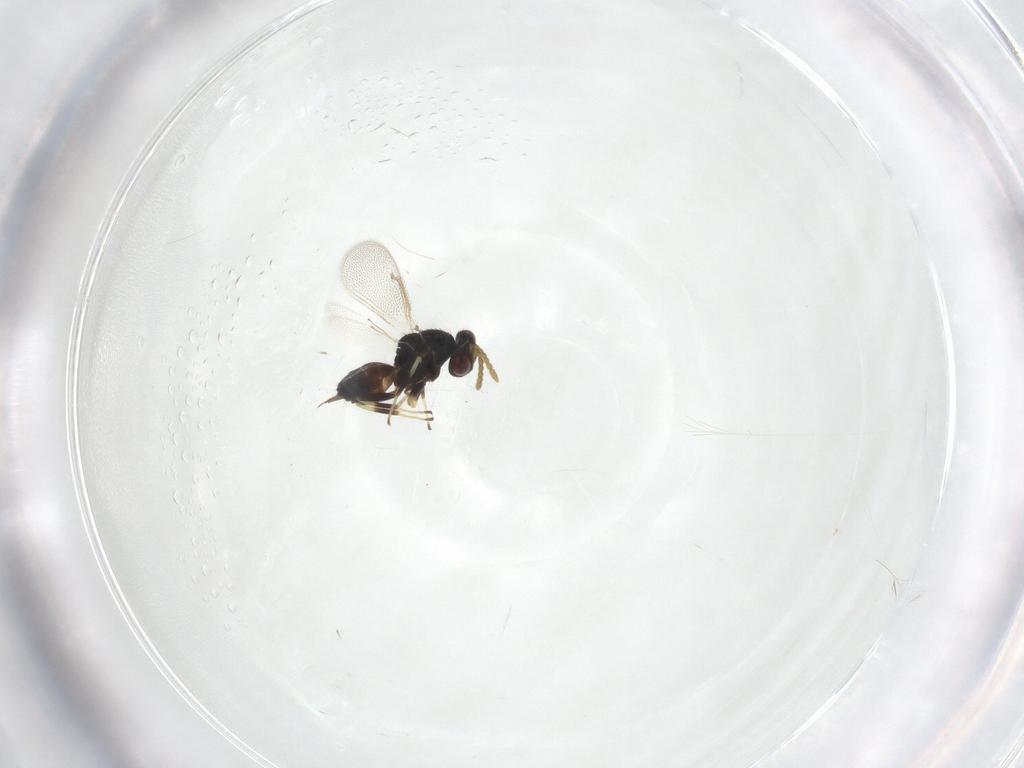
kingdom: Animalia
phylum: Arthropoda
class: Insecta
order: Hymenoptera
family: Eulophidae
